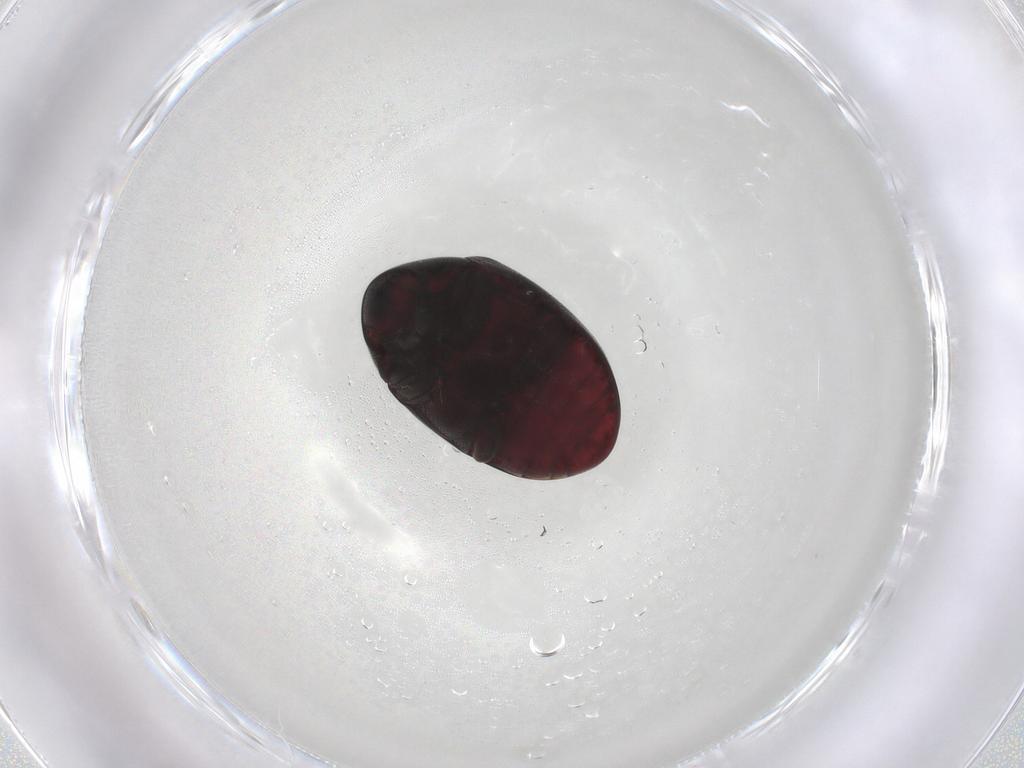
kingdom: Animalia
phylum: Arthropoda
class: Insecta
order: Coleoptera
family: Ptinidae
